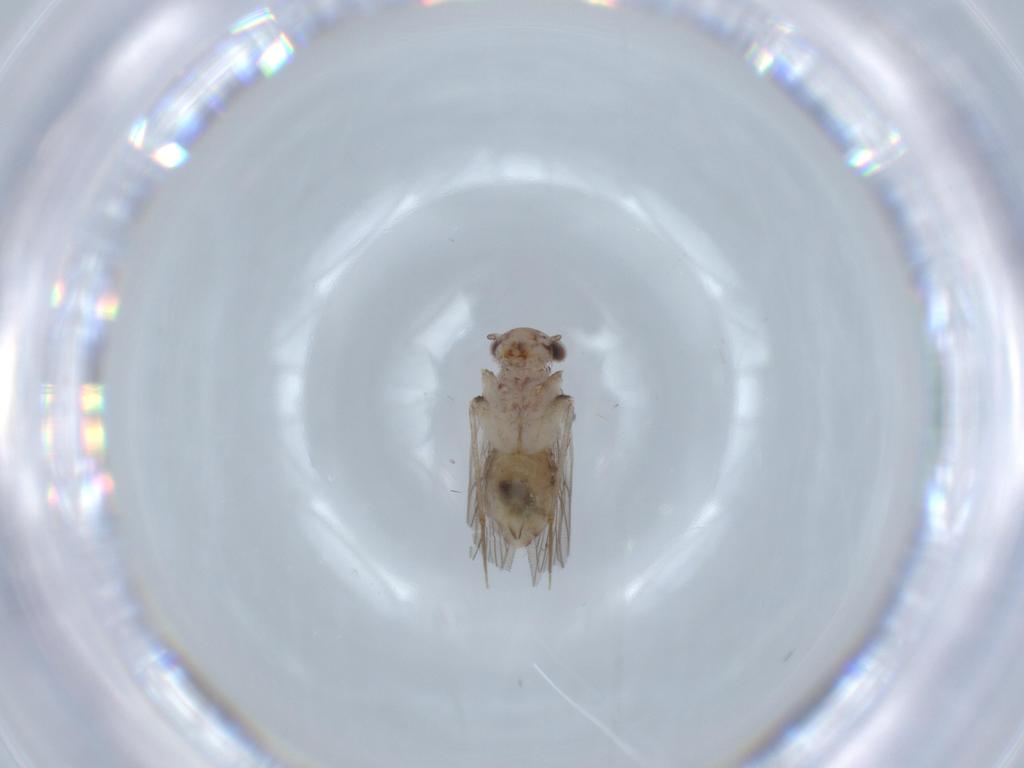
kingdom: Animalia
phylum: Arthropoda
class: Insecta
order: Psocodea
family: Lepidopsocidae
